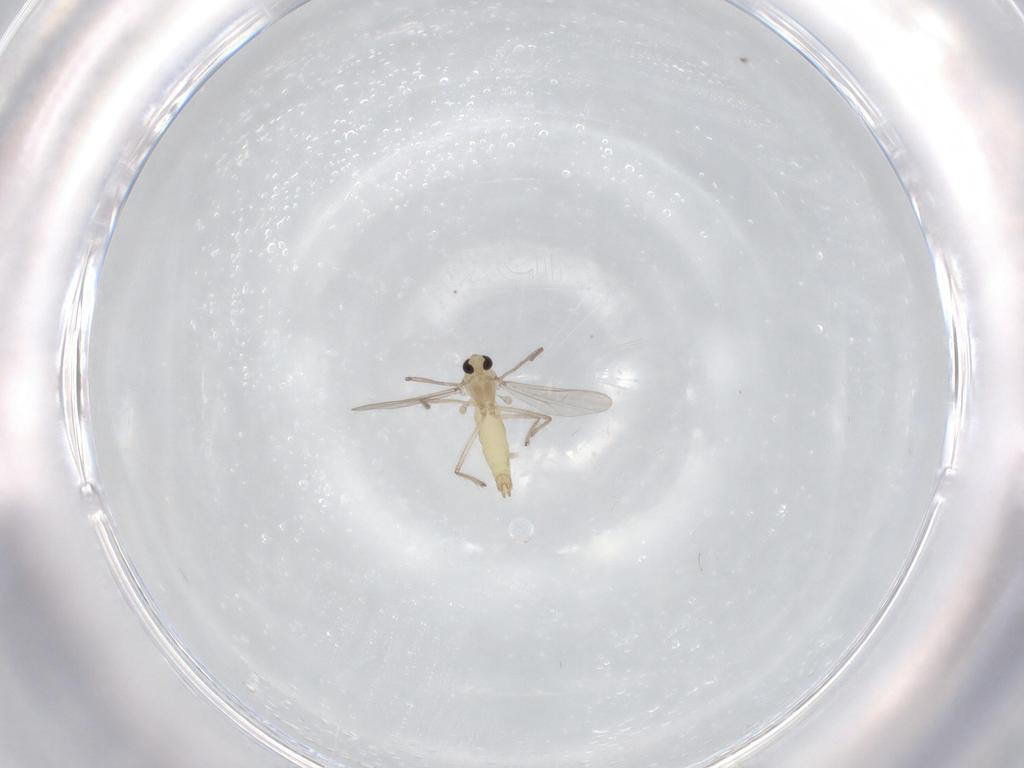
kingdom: Animalia
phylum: Arthropoda
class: Insecta
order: Diptera
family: Chironomidae
